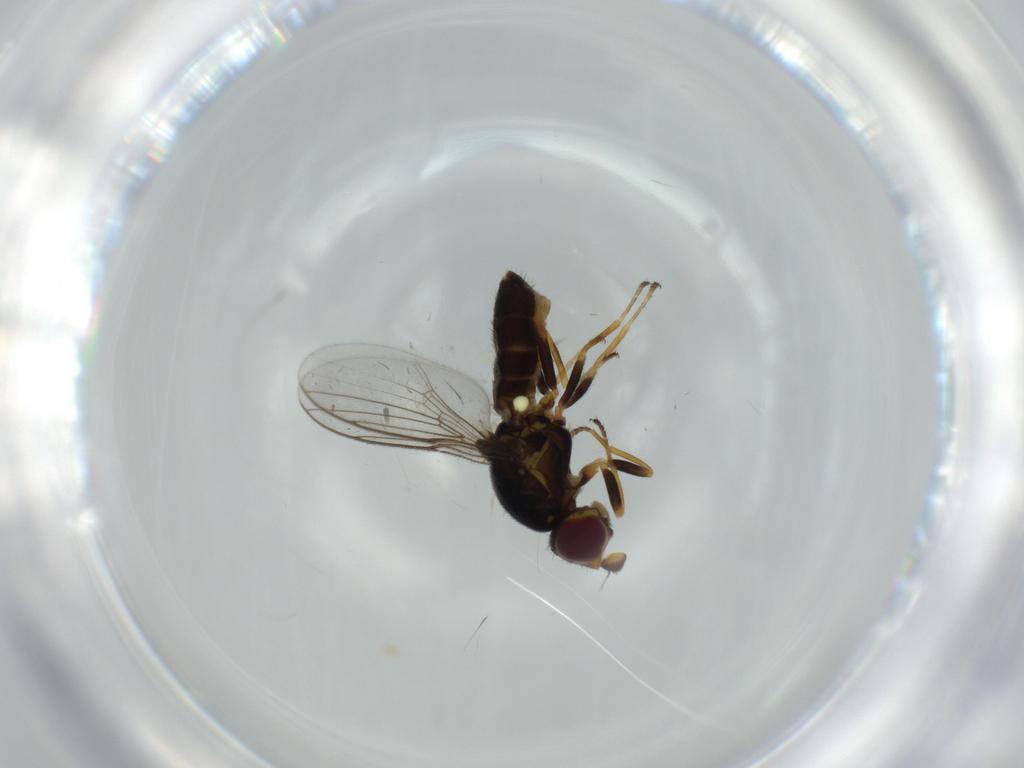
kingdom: Animalia
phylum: Arthropoda
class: Insecta
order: Diptera
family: Chloropidae
